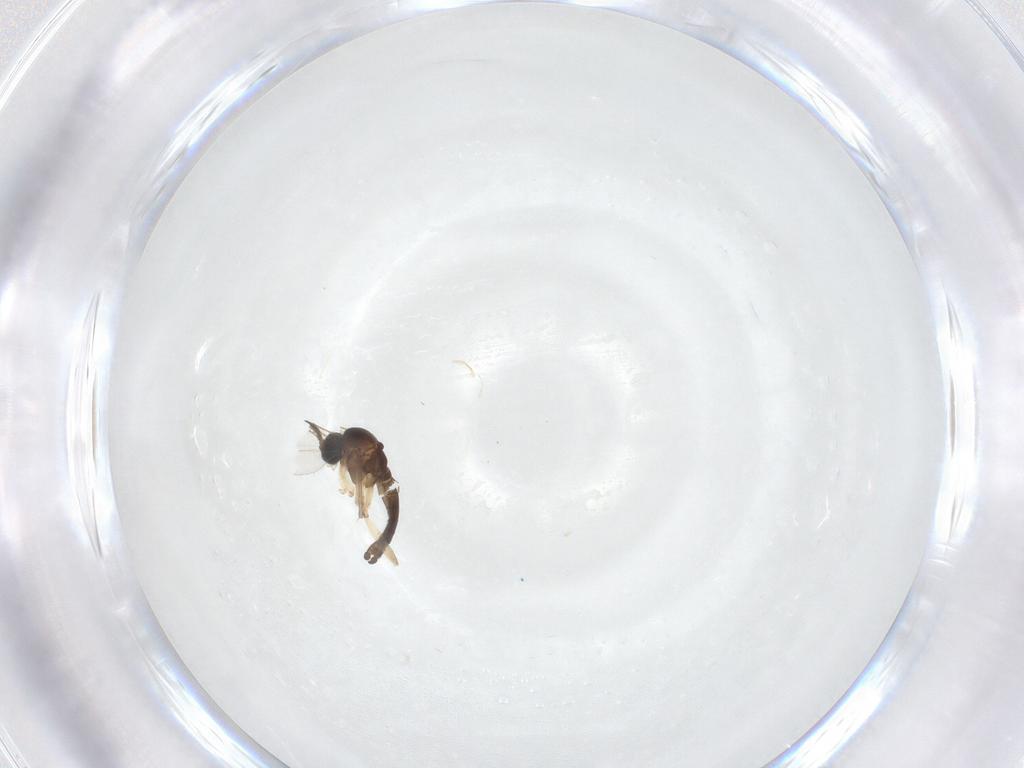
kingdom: Animalia
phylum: Arthropoda
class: Insecta
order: Diptera
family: Sciaridae
